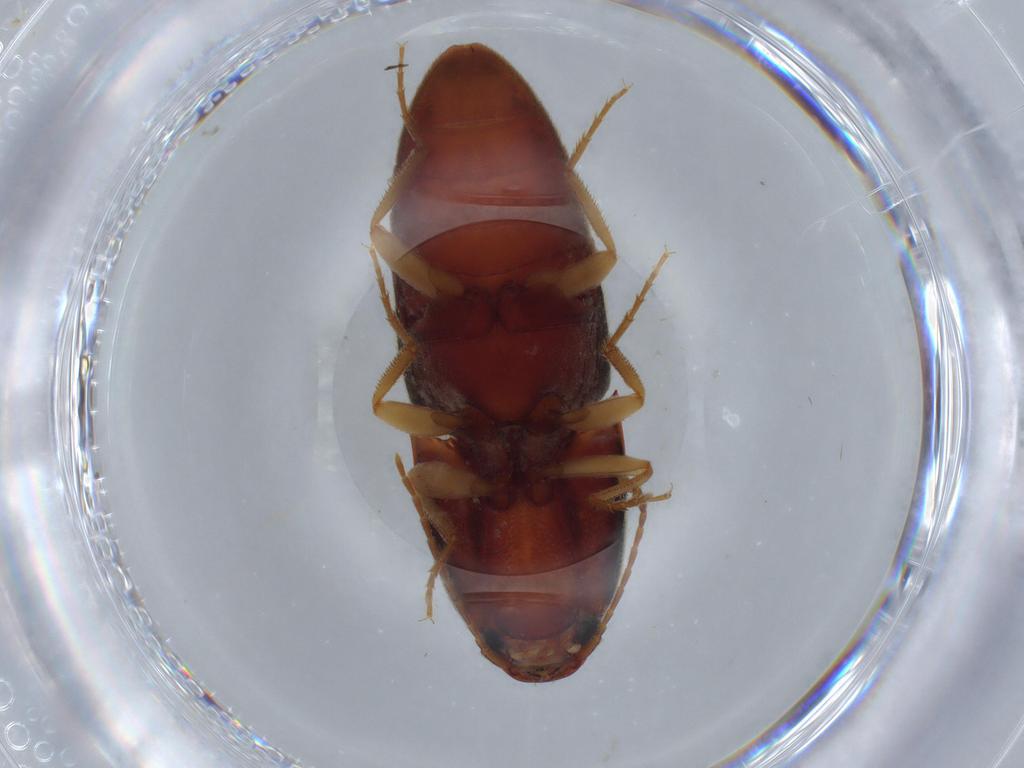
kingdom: Animalia
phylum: Arthropoda
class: Insecta
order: Coleoptera
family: Elateridae
